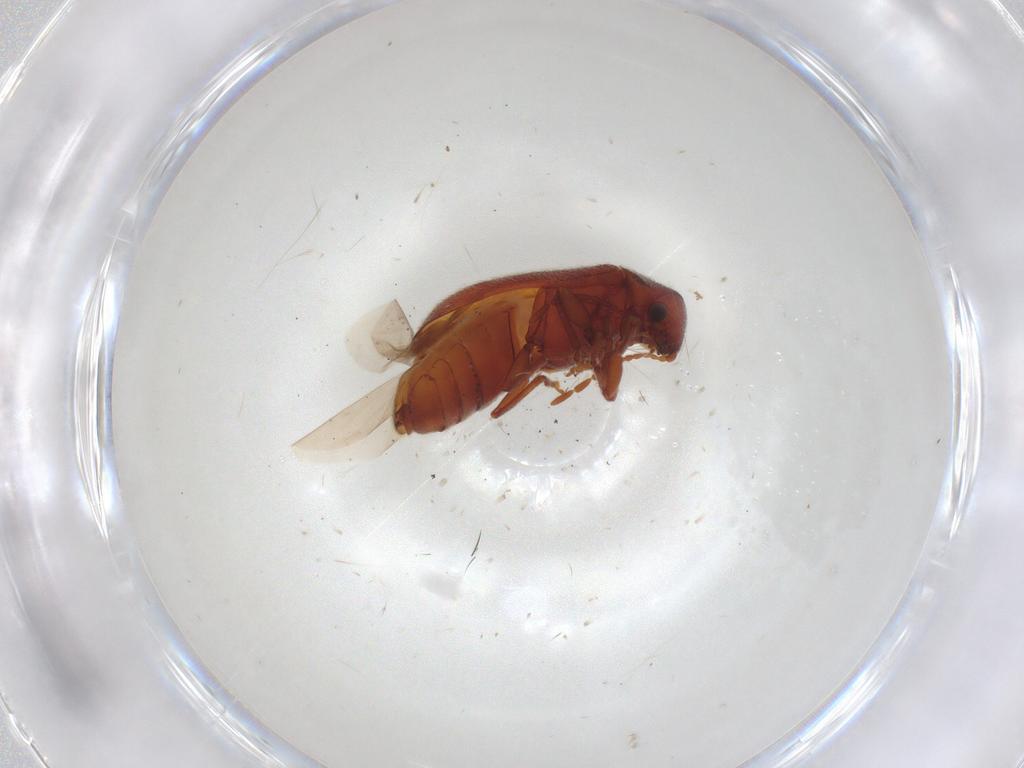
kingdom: Animalia
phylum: Arthropoda
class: Insecta
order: Coleoptera
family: Ptinidae
